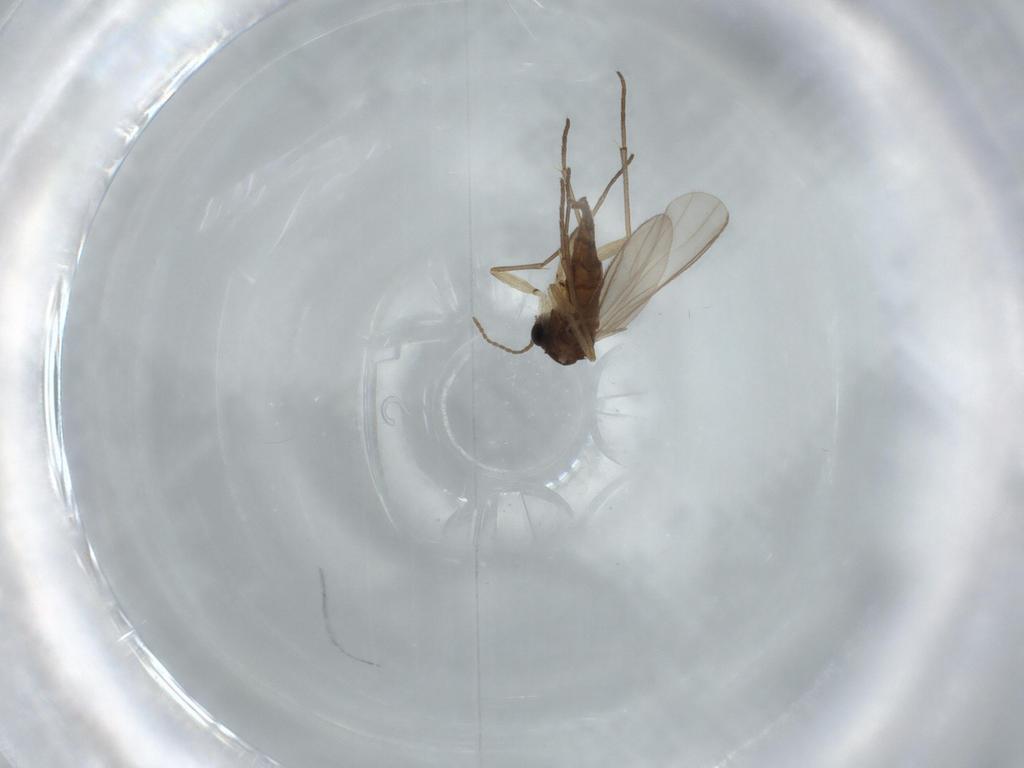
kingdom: Animalia
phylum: Arthropoda
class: Insecta
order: Diptera
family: Sciaridae
